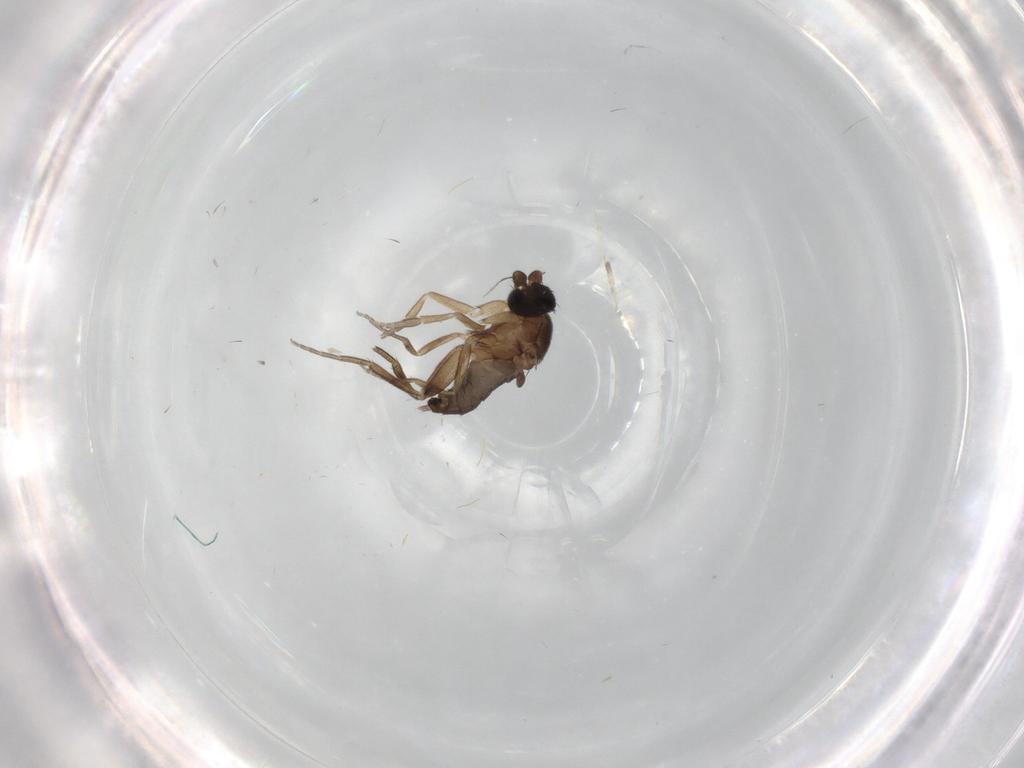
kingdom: Animalia
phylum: Arthropoda
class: Insecta
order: Diptera
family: Phoridae
